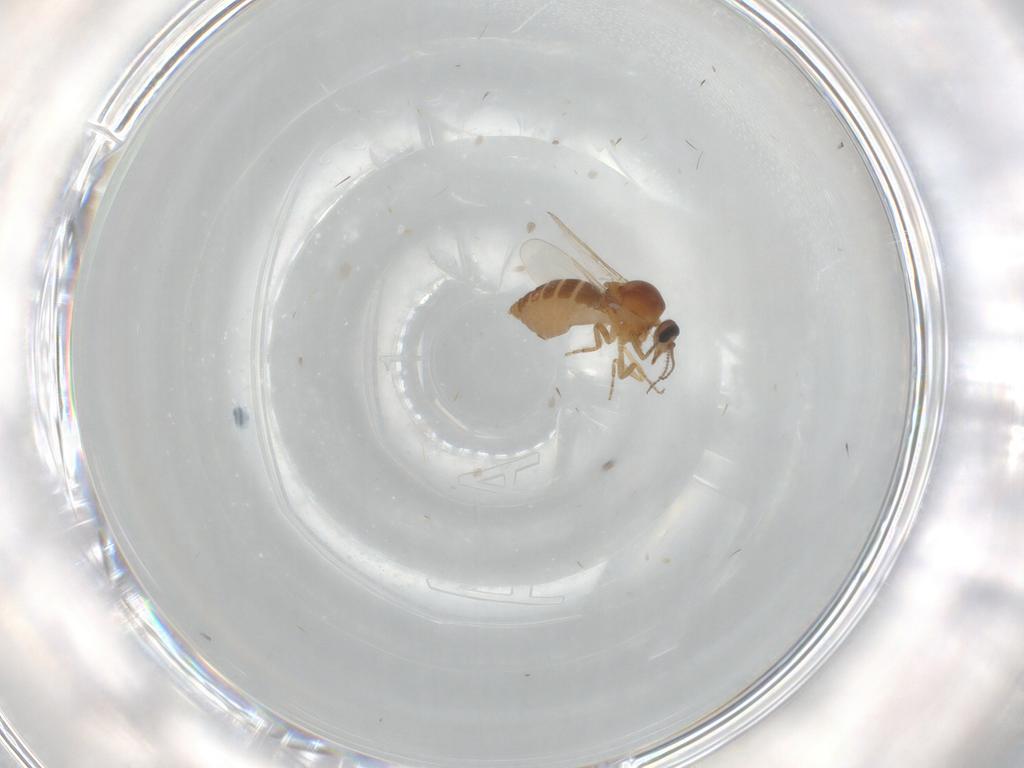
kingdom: Animalia
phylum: Arthropoda
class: Insecta
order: Diptera
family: Ceratopogonidae
